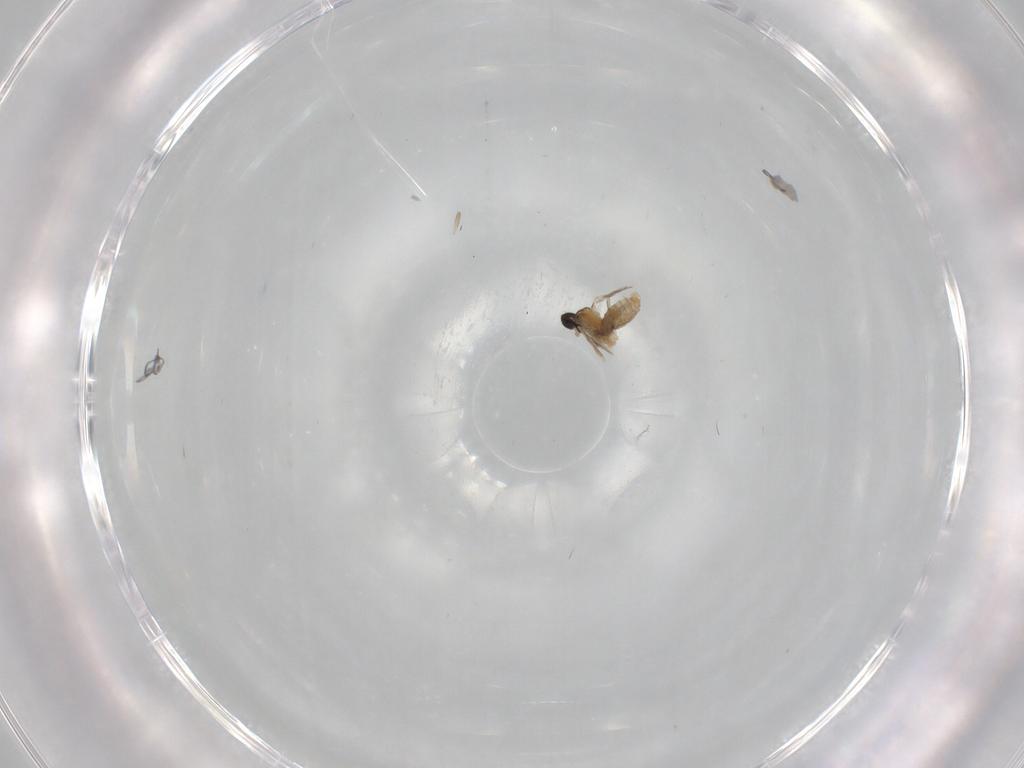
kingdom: Animalia
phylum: Arthropoda
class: Insecta
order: Diptera
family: Dolichopodidae
